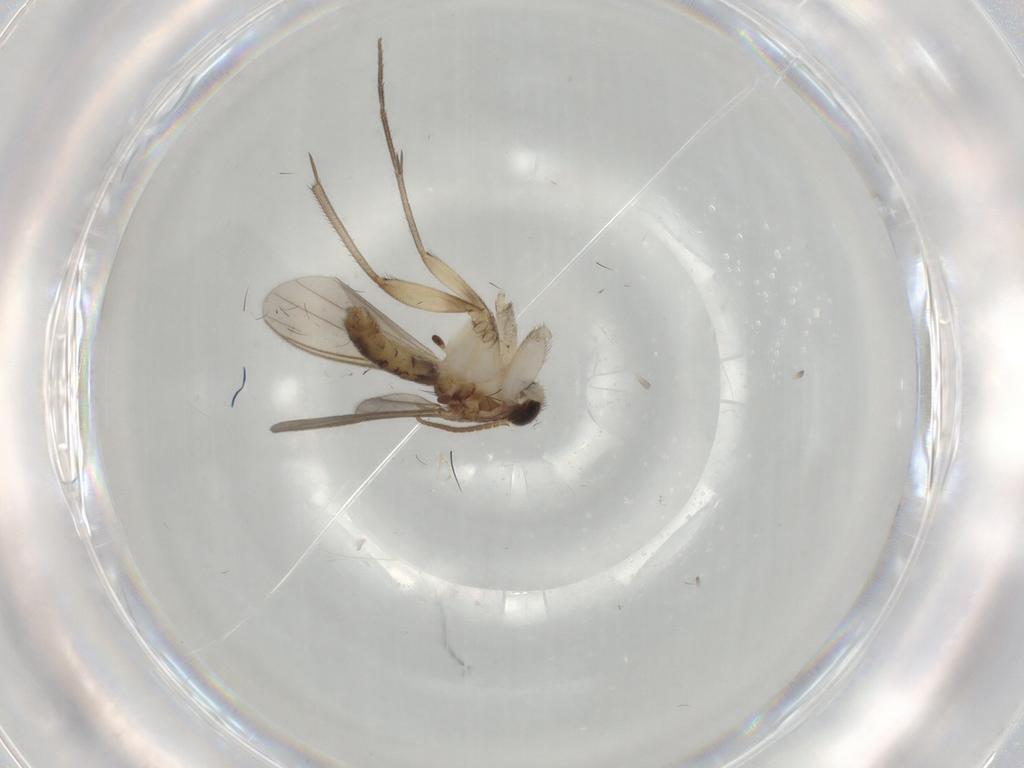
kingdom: Animalia
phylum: Arthropoda
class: Insecta
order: Diptera
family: Mycetophilidae
